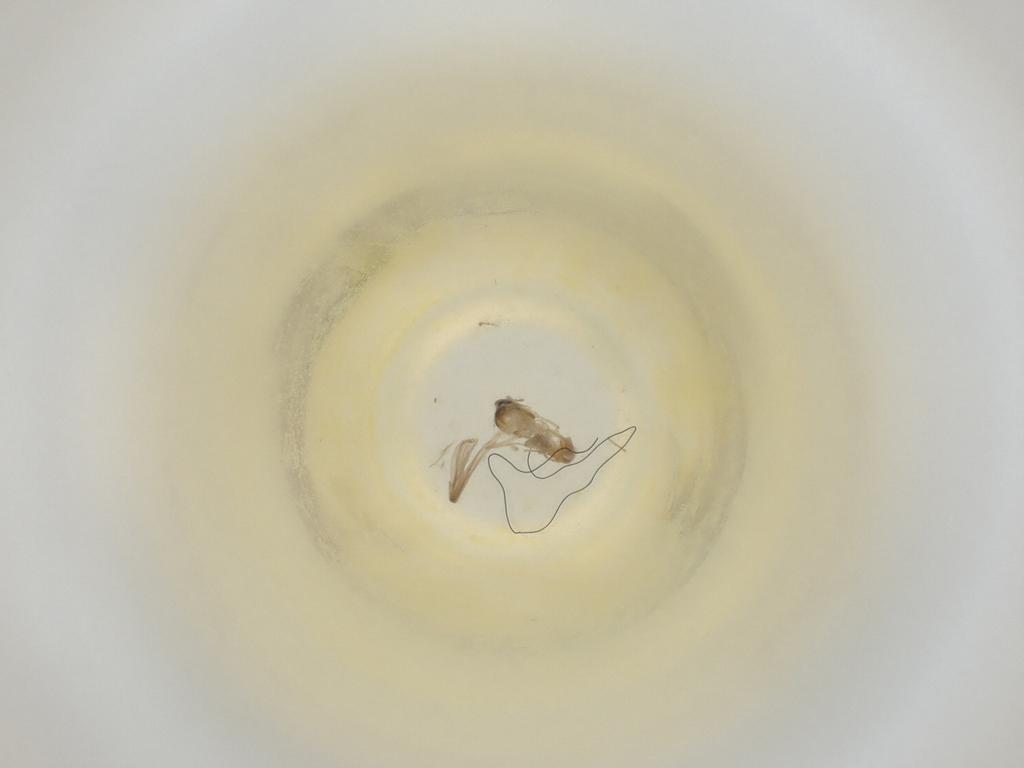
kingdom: Animalia
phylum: Arthropoda
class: Insecta
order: Diptera
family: Cecidomyiidae
